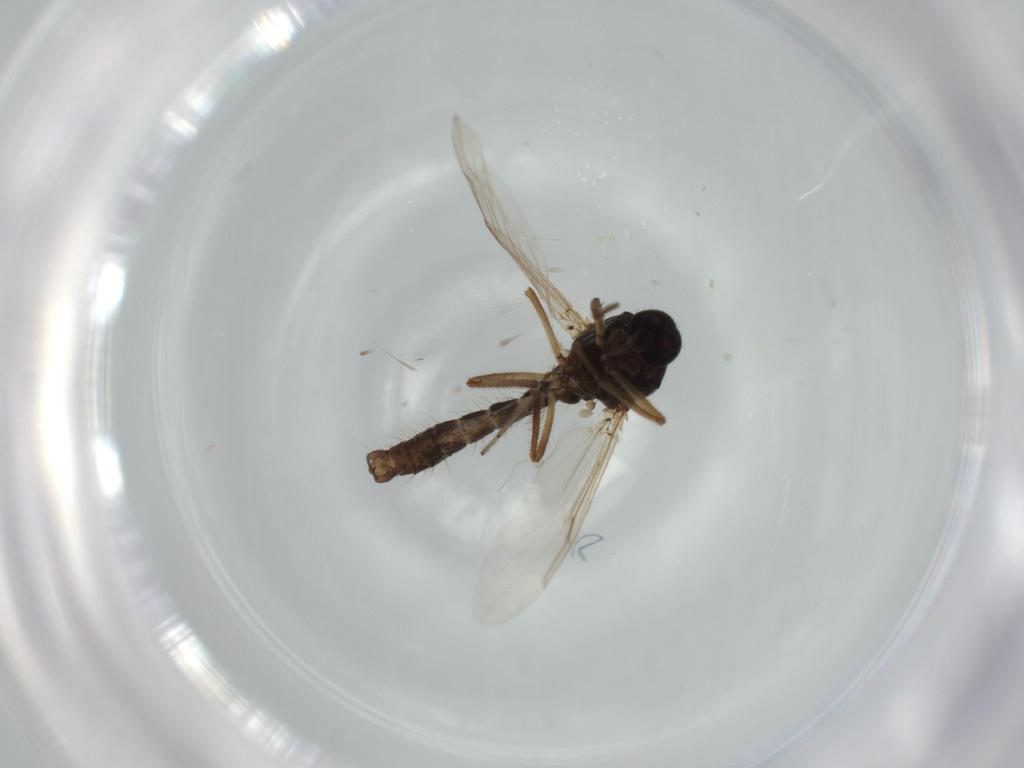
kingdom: Animalia
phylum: Arthropoda
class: Insecta
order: Diptera
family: Ceratopogonidae
